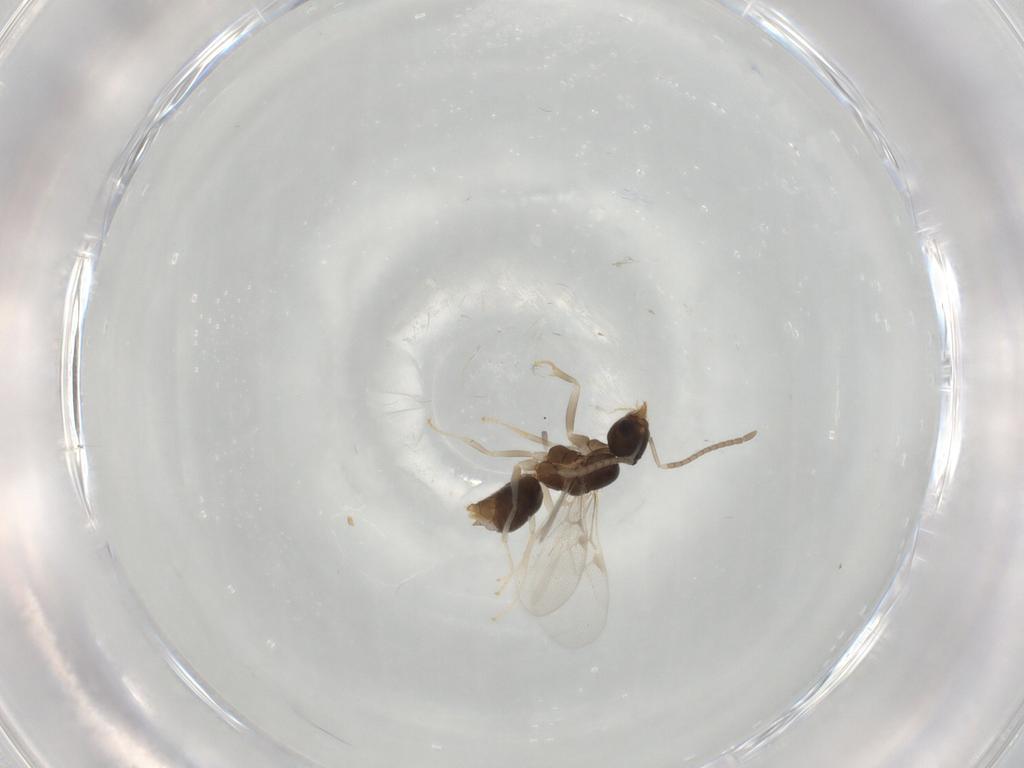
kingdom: Animalia
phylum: Arthropoda
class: Insecta
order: Hymenoptera
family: Formicidae
